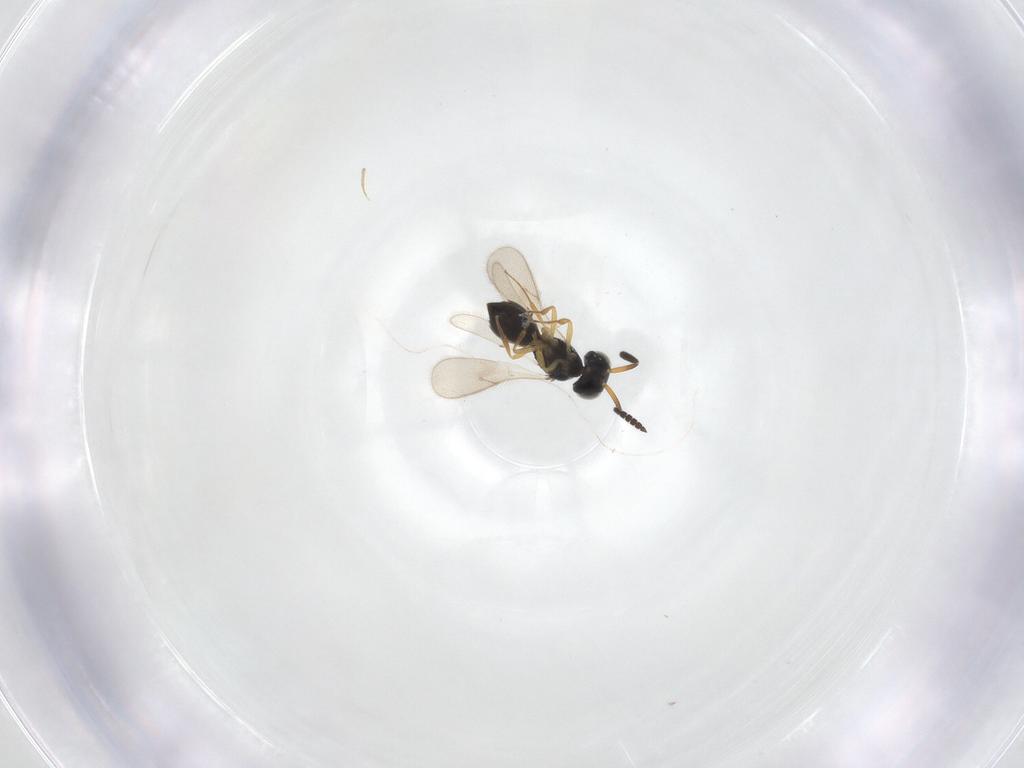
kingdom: Animalia
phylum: Arthropoda
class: Insecta
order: Hymenoptera
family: Scelionidae
